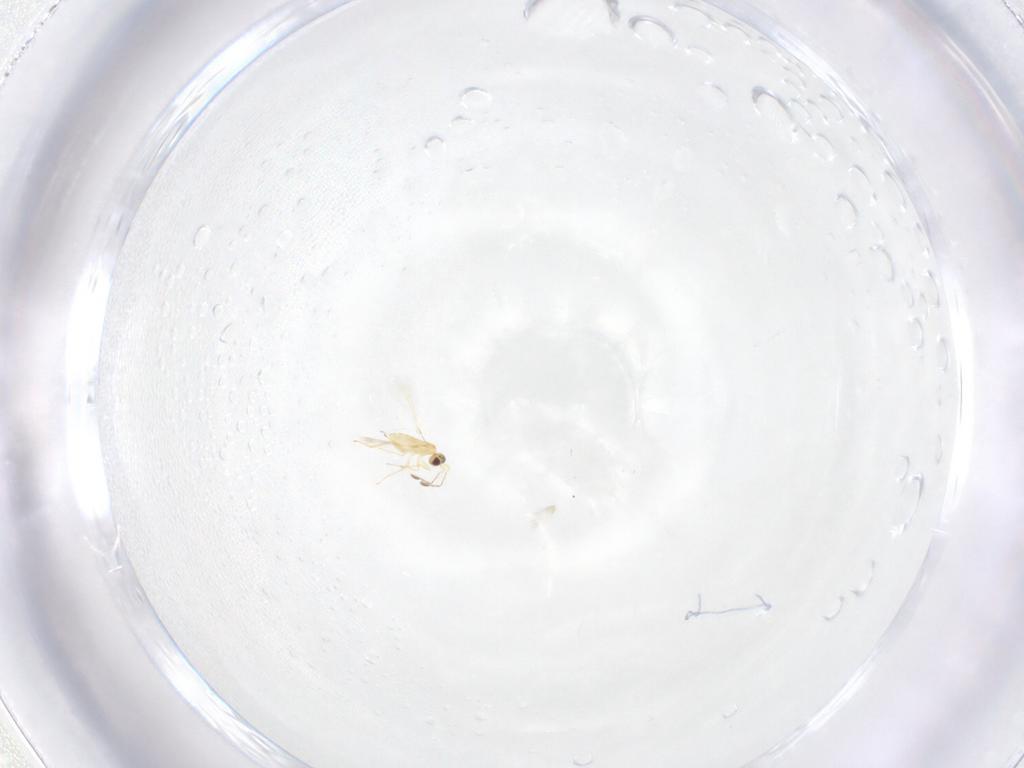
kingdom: Animalia
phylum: Arthropoda
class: Insecta
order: Hymenoptera
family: Mymaridae
